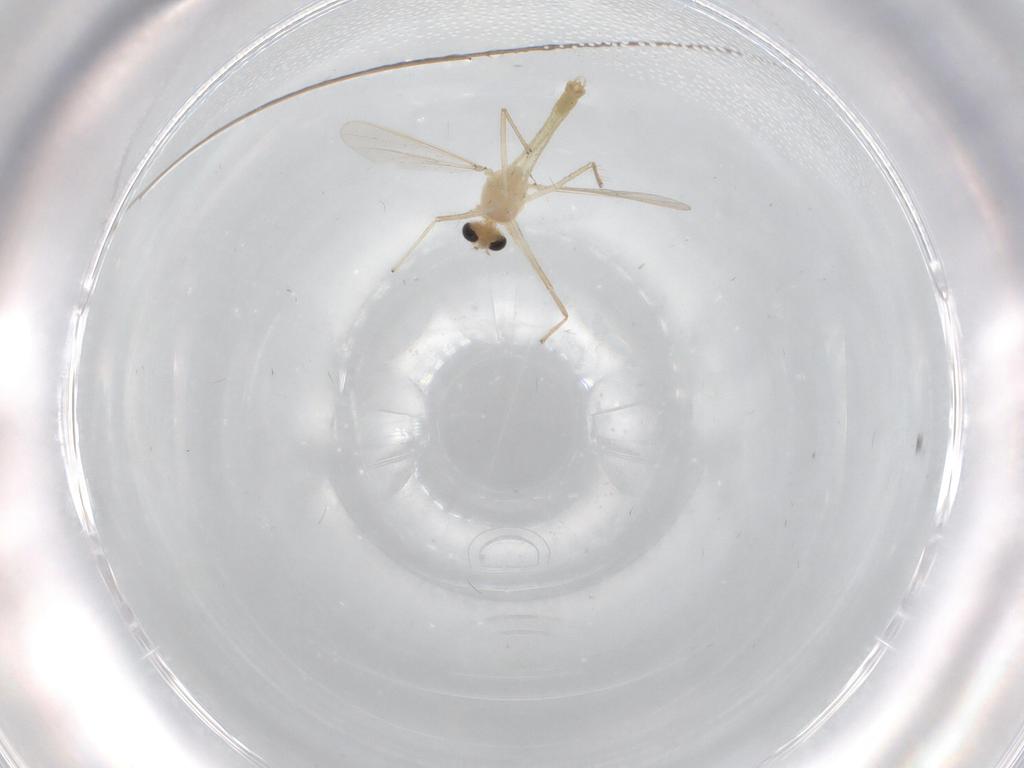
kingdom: Animalia
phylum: Arthropoda
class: Insecta
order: Diptera
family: Chironomidae
